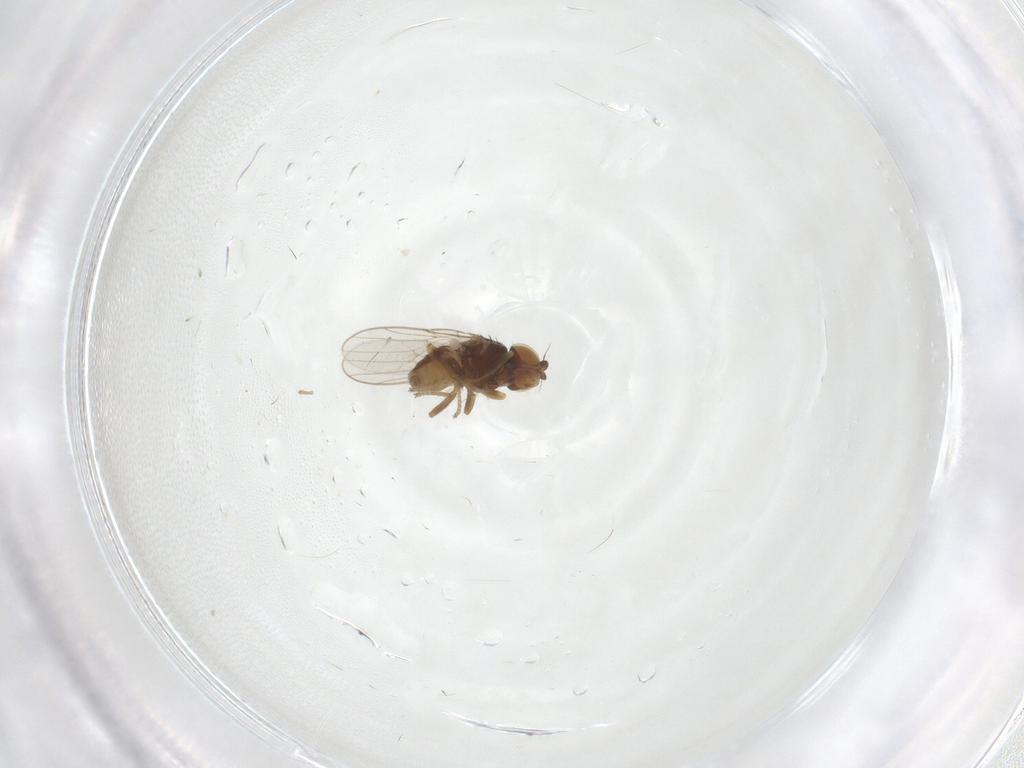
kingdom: Animalia
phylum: Arthropoda
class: Insecta
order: Diptera
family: Chloropidae
